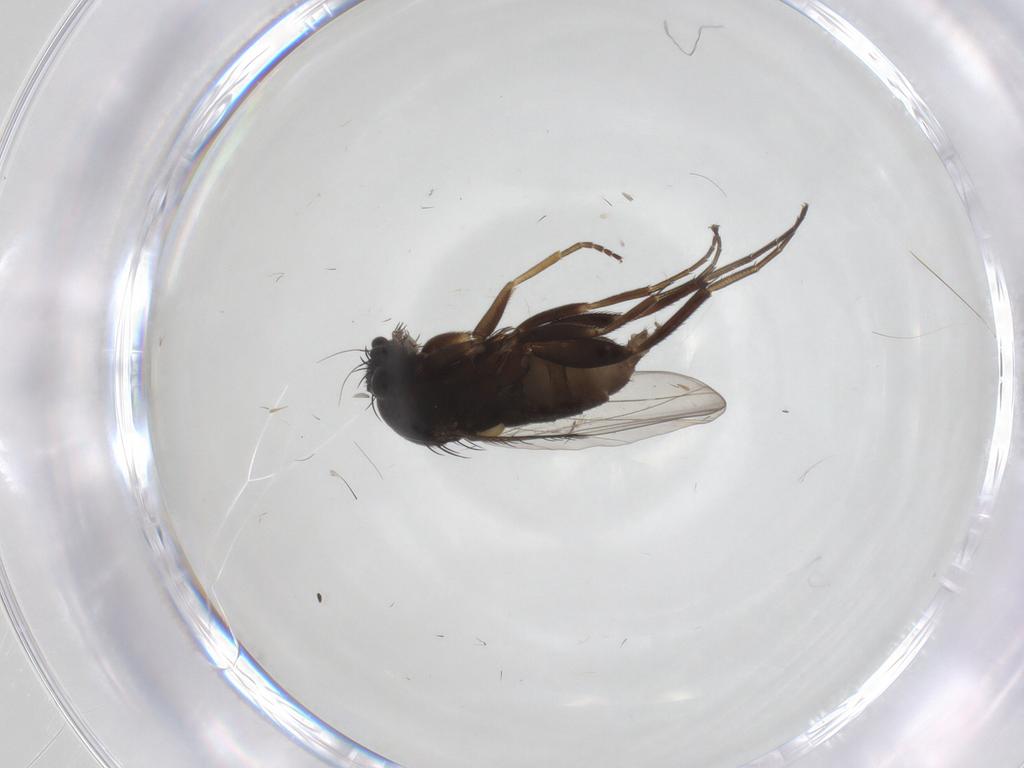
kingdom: Animalia
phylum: Arthropoda
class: Insecta
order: Diptera
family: Phoridae
